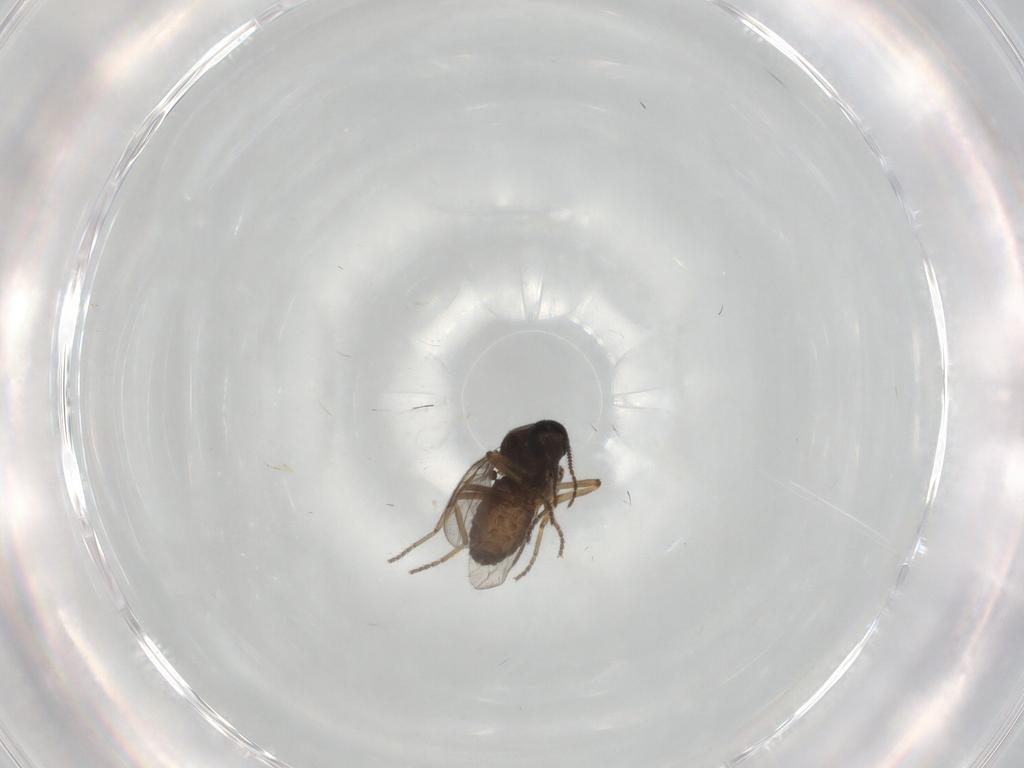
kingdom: Animalia
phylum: Arthropoda
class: Insecta
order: Diptera
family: Ceratopogonidae
